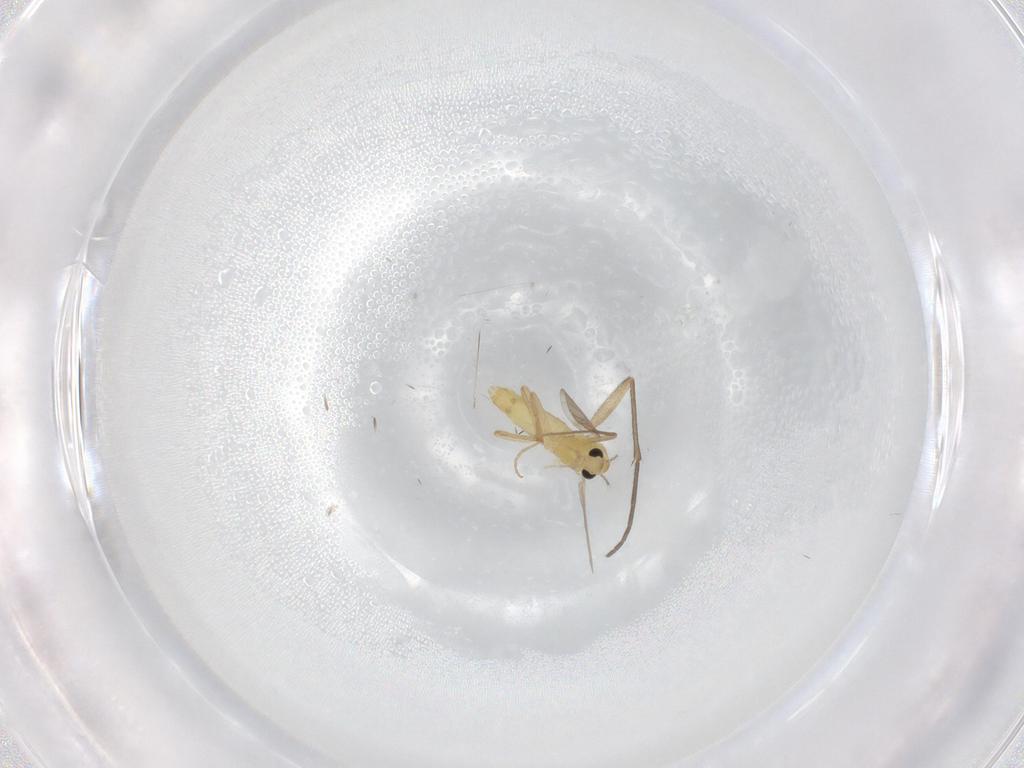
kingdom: Animalia
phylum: Arthropoda
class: Insecta
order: Diptera
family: Chironomidae
